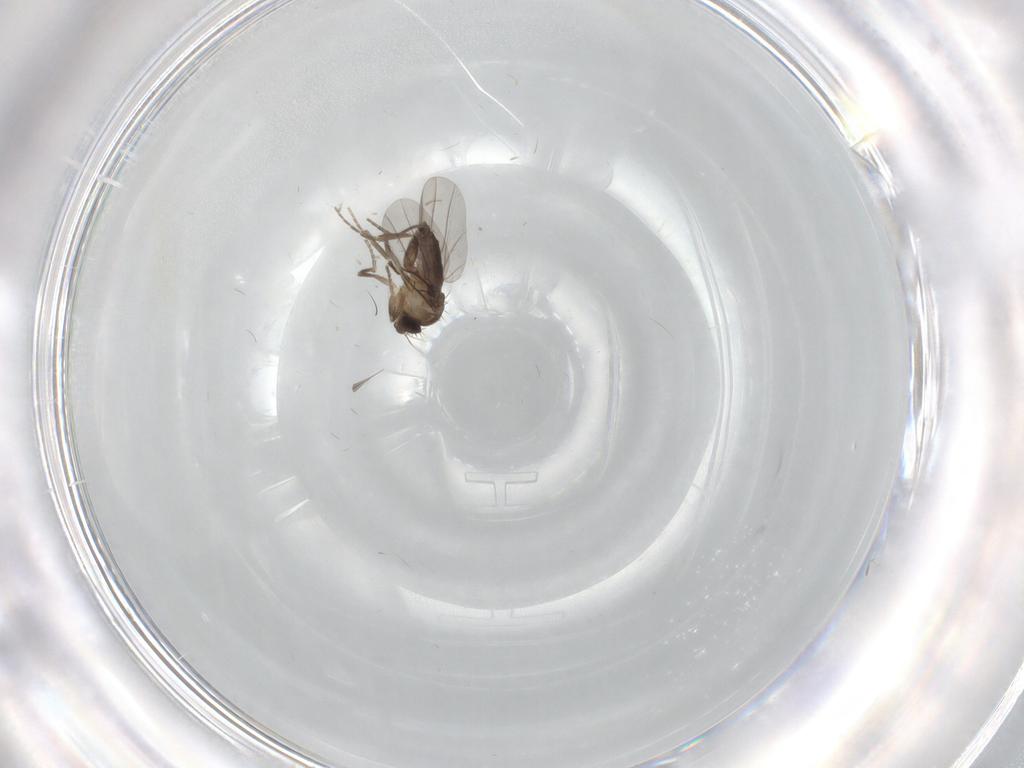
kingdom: Animalia
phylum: Arthropoda
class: Insecta
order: Diptera
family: Phoridae
